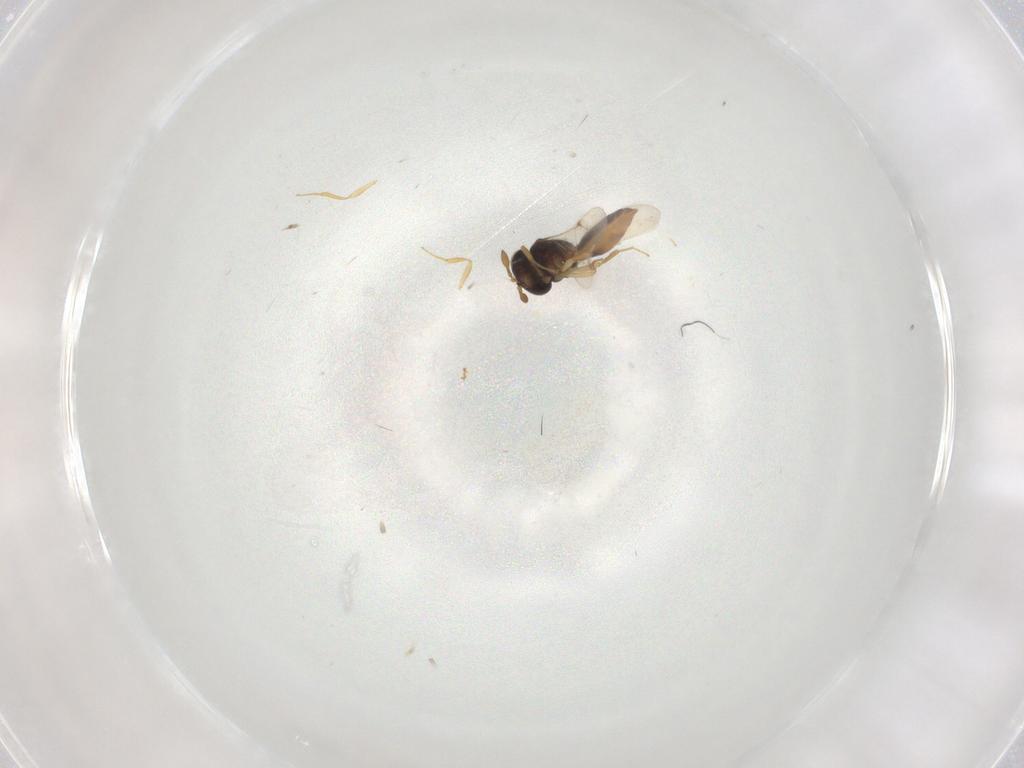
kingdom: Animalia
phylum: Arthropoda
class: Insecta
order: Hymenoptera
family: Scelionidae
